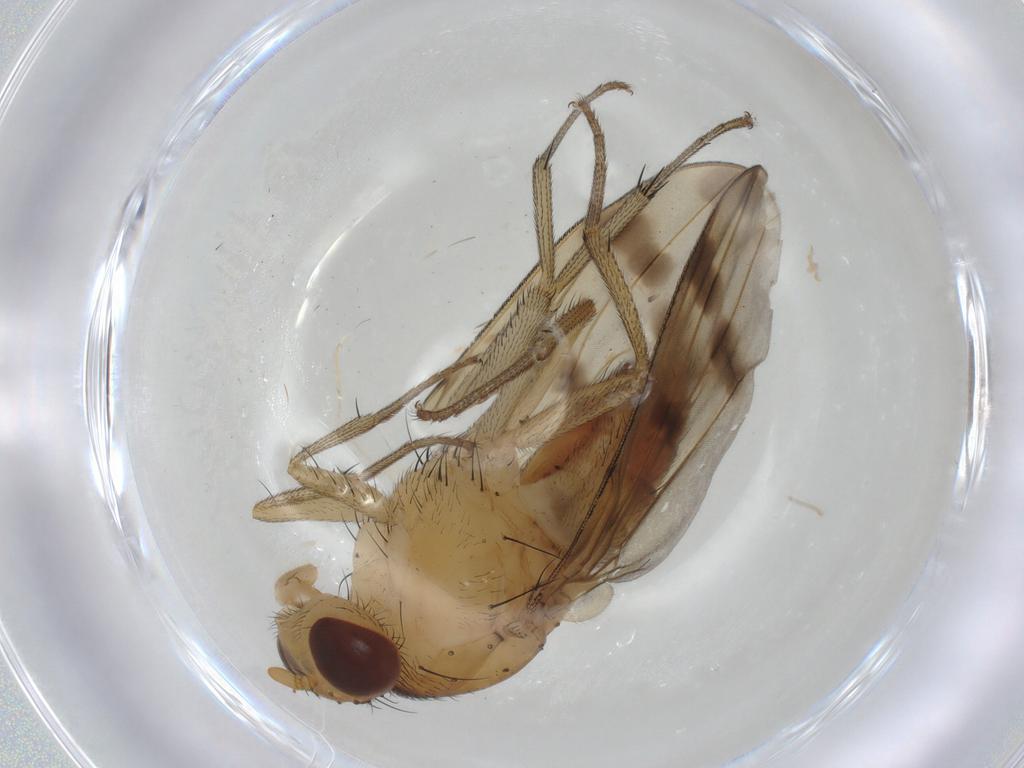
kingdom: Animalia
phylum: Arthropoda
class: Insecta
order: Diptera
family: Lauxaniidae
